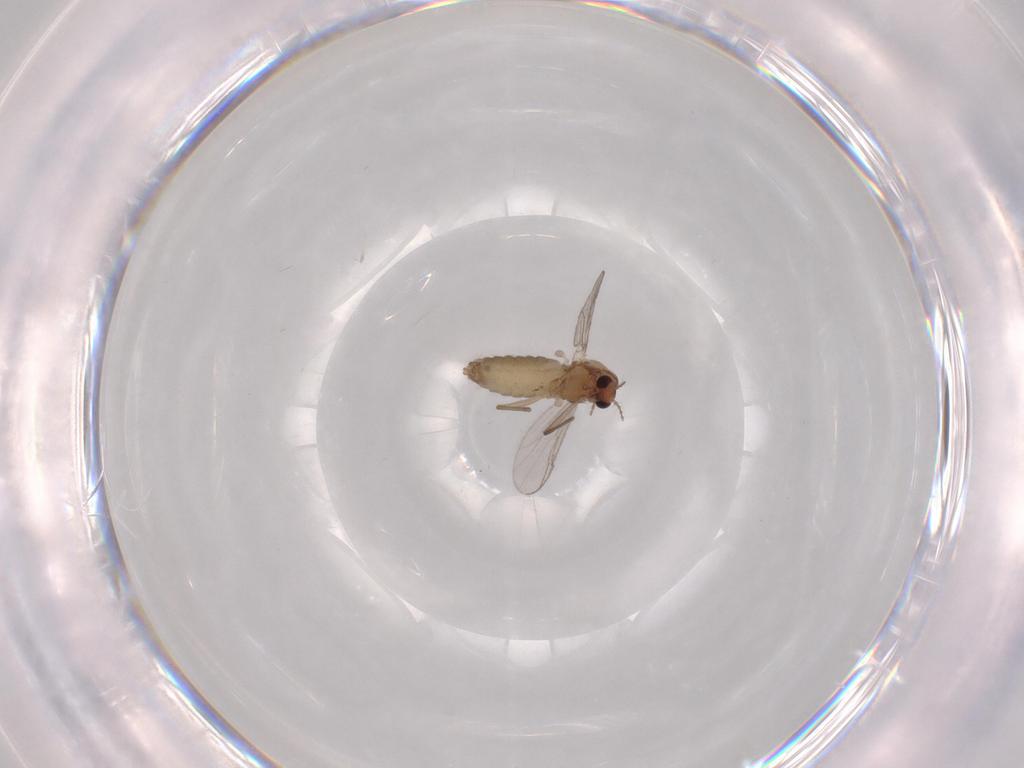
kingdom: Animalia
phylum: Arthropoda
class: Insecta
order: Diptera
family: Chironomidae
